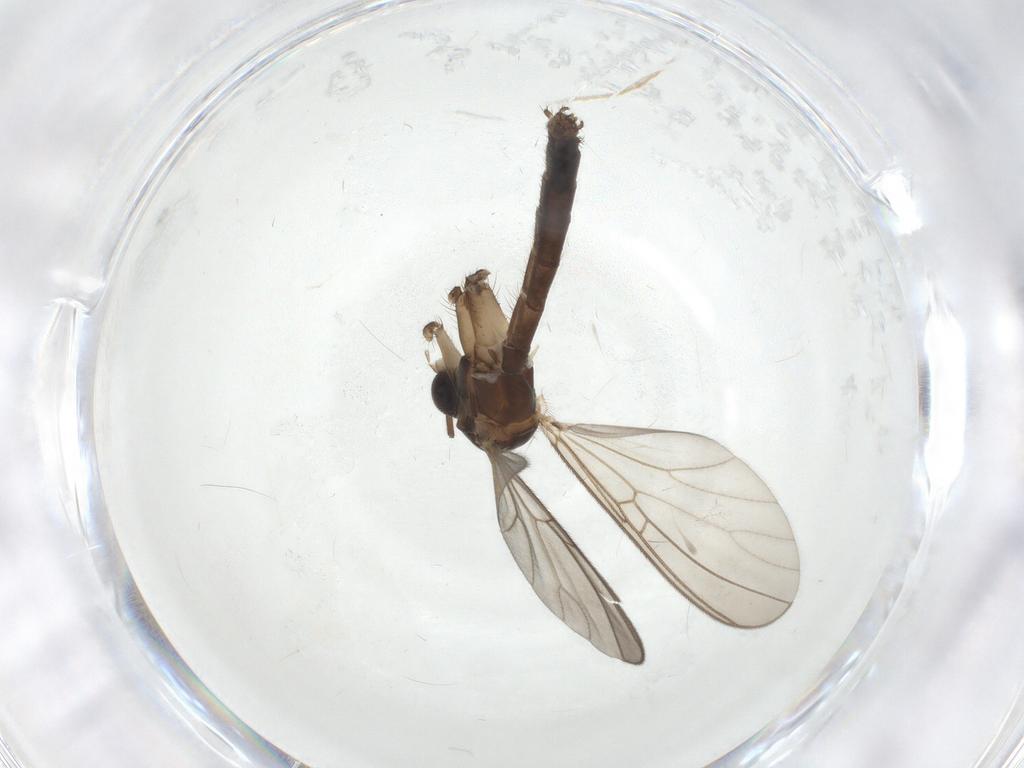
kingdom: Animalia
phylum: Arthropoda
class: Insecta
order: Diptera
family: Mycetophilidae
